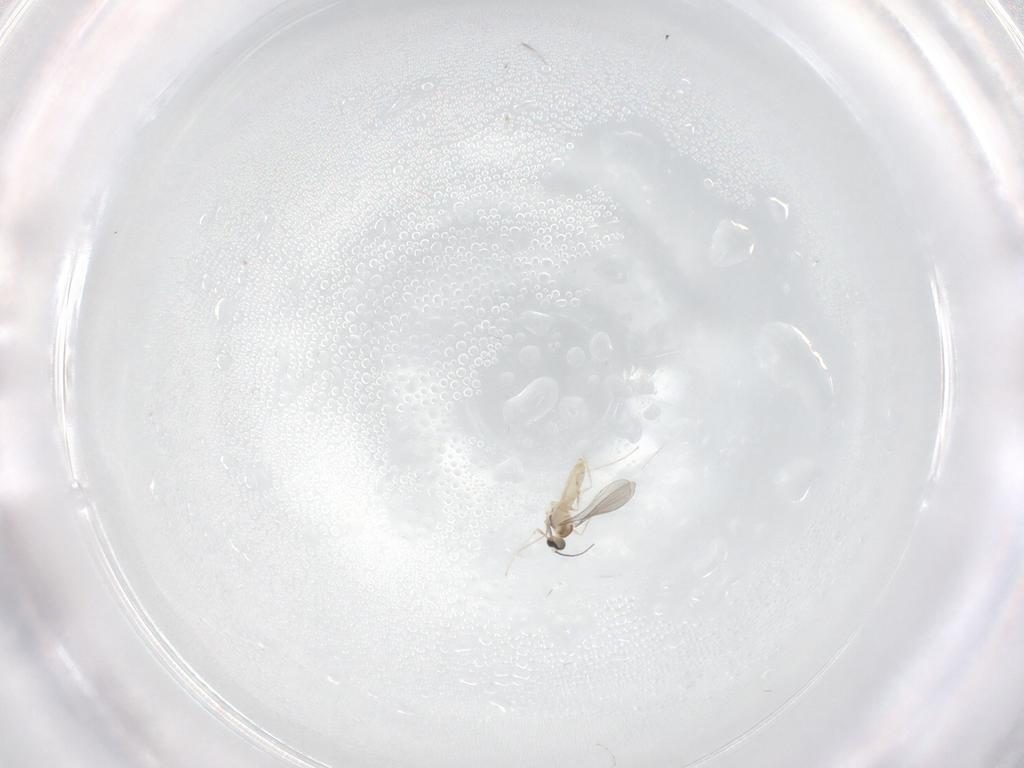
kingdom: Animalia
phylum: Arthropoda
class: Insecta
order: Diptera
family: Cecidomyiidae
